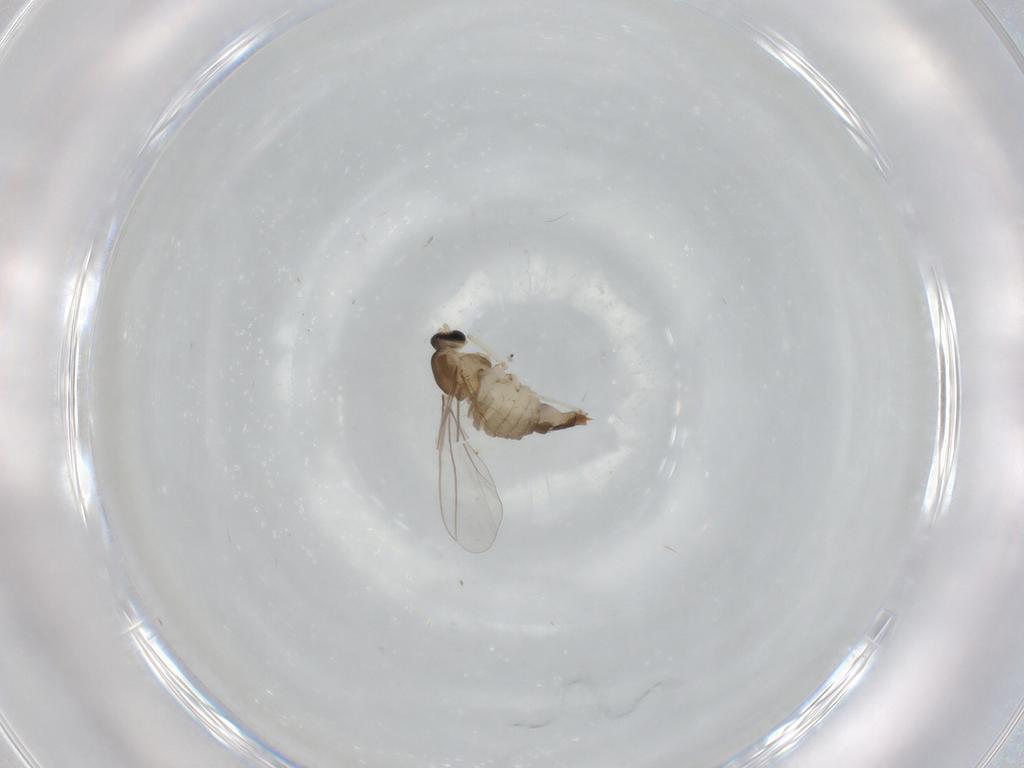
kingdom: Animalia
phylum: Arthropoda
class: Insecta
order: Diptera
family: Cecidomyiidae
